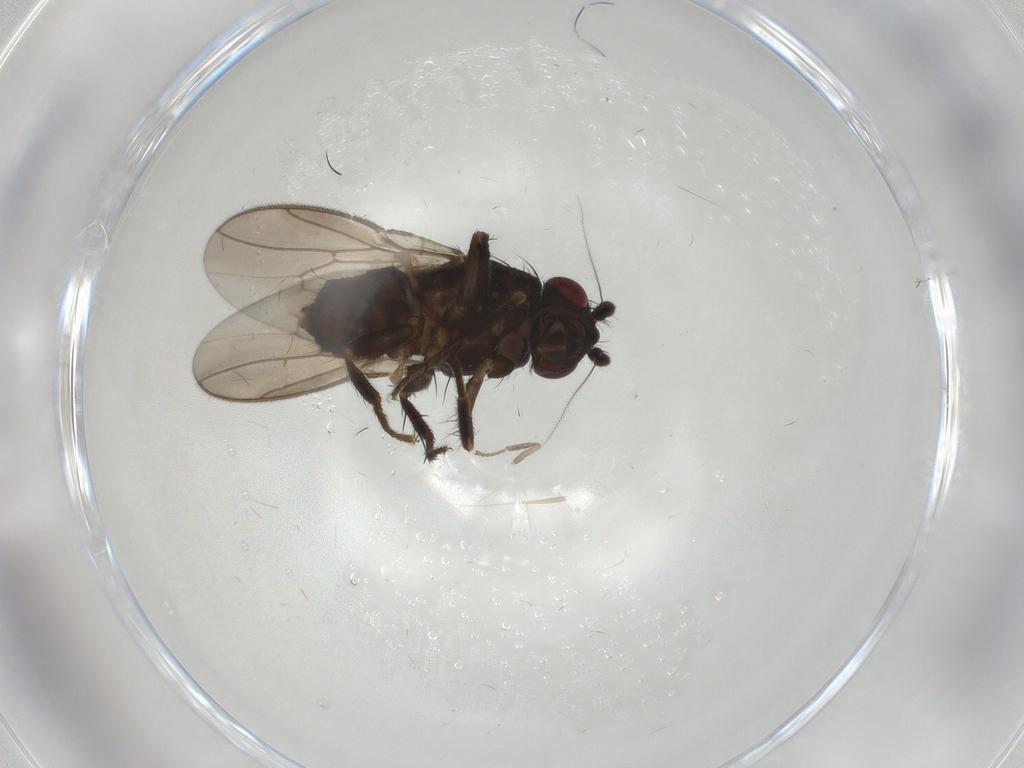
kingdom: Animalia
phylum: Arthropoda
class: Insecta
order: Diptera
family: Sphaeroceridae
